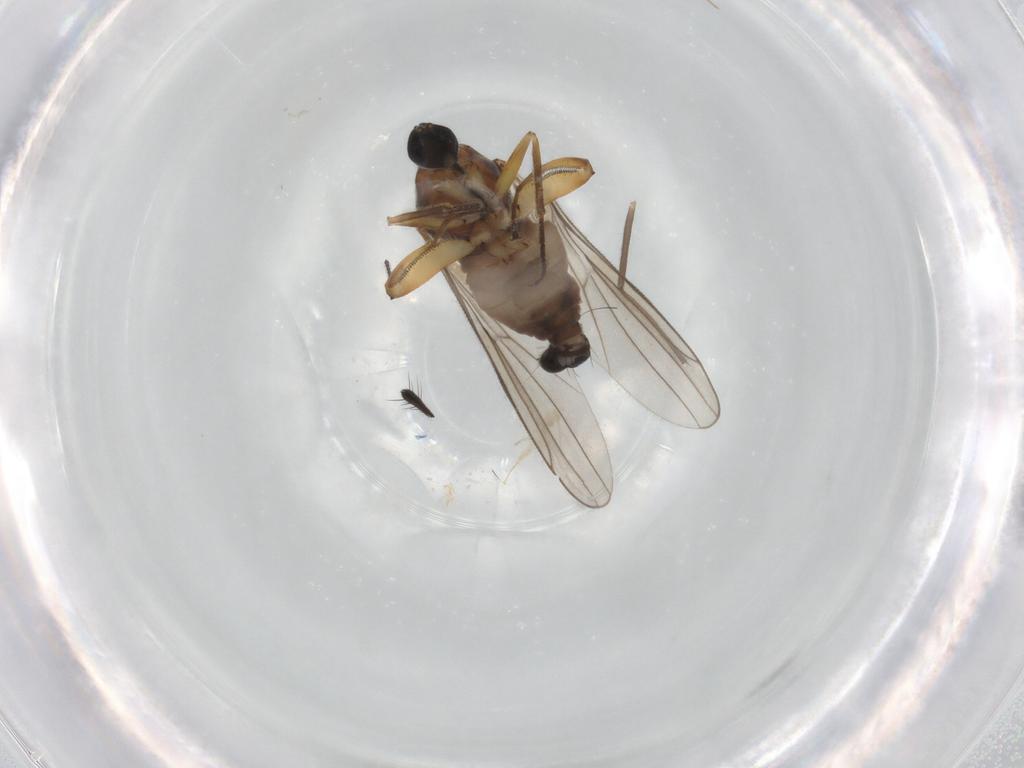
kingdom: Animalia
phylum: Arthropoda
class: Insecta
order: Diptera
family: Hybotidae
